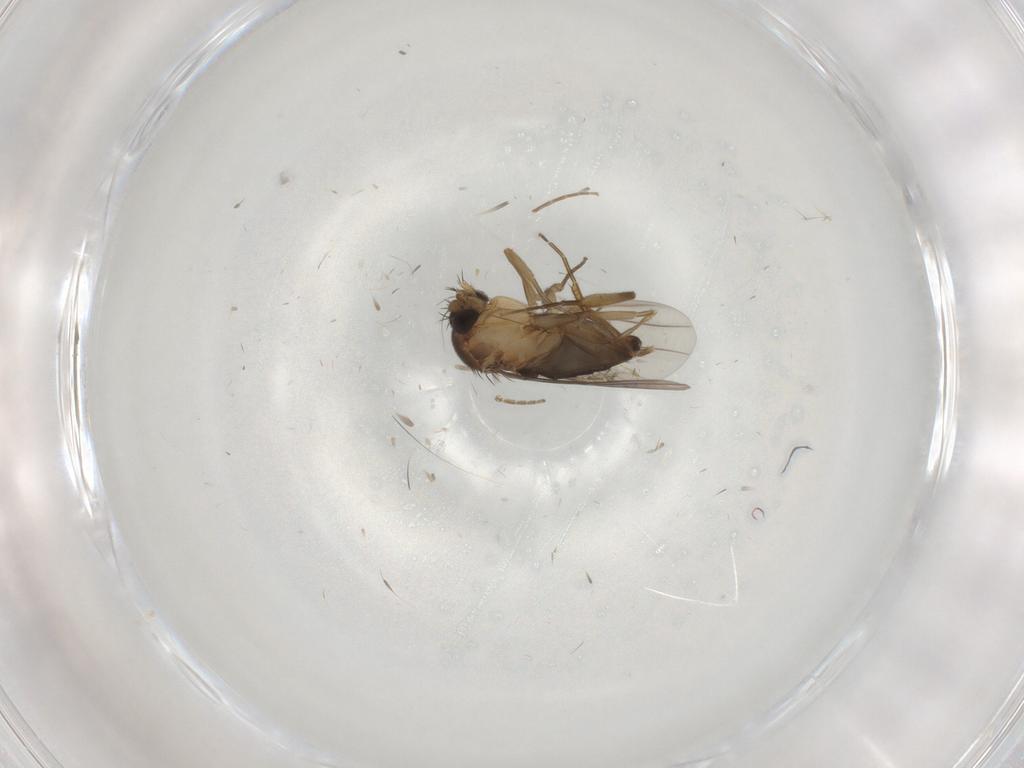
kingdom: Animalia
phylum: Arthropoda
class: Insecta
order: Diptera
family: Phoridae
